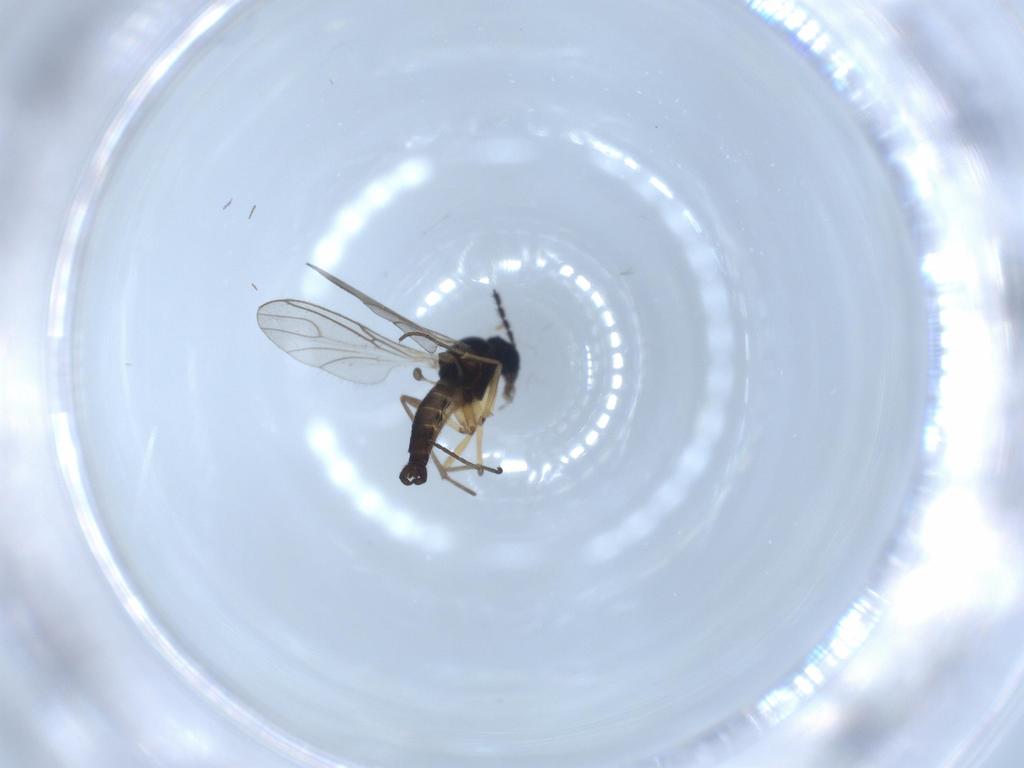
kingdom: Animalia
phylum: Arthropoda
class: Insecta
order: Diptera
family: Sciaridae
